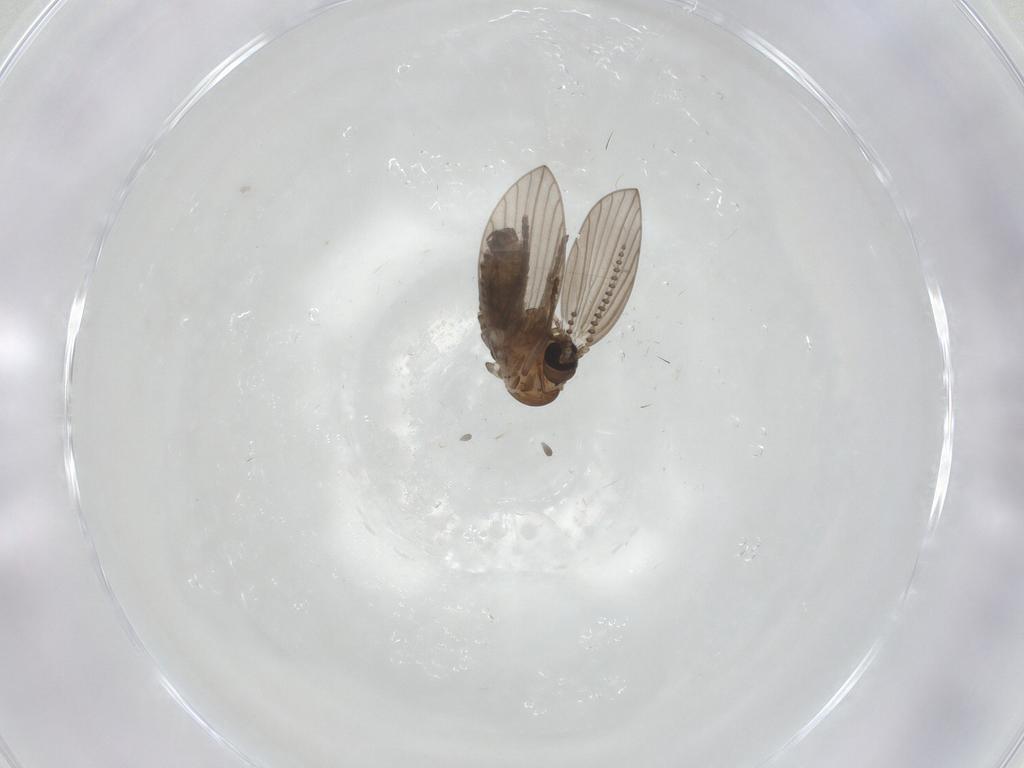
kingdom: Animalia
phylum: Arthropoda
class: Insecta
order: Diptera
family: Psychodidae
